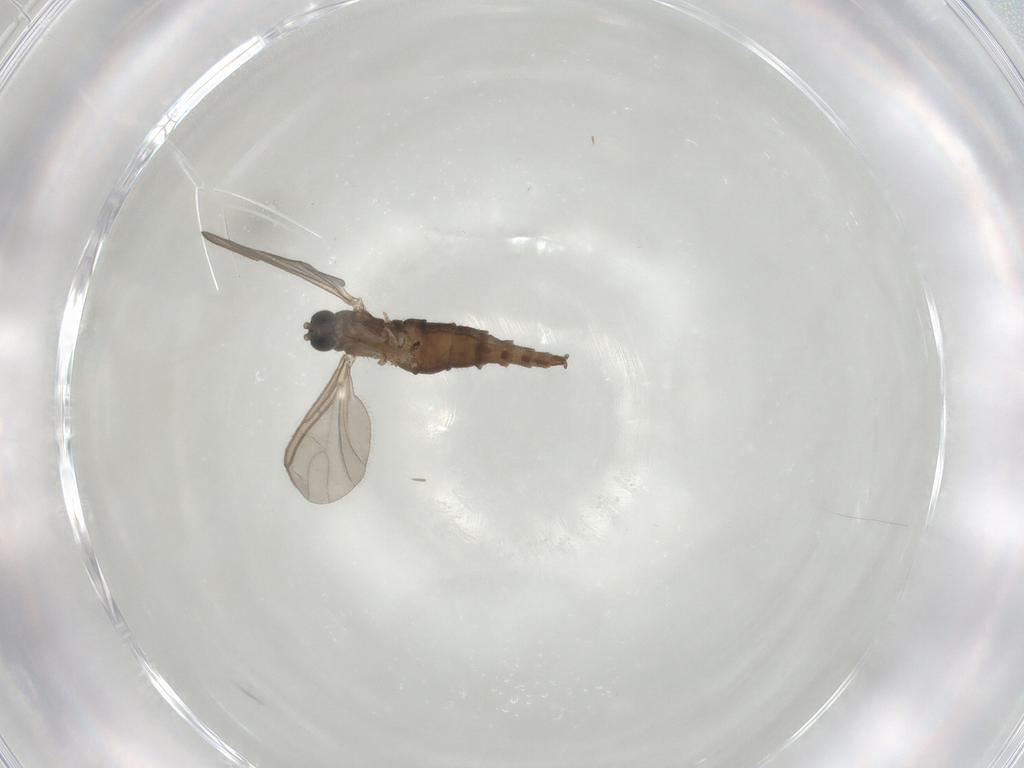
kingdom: Animalia
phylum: Arthropoda
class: Insecta
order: Diptera
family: Sciaridae
